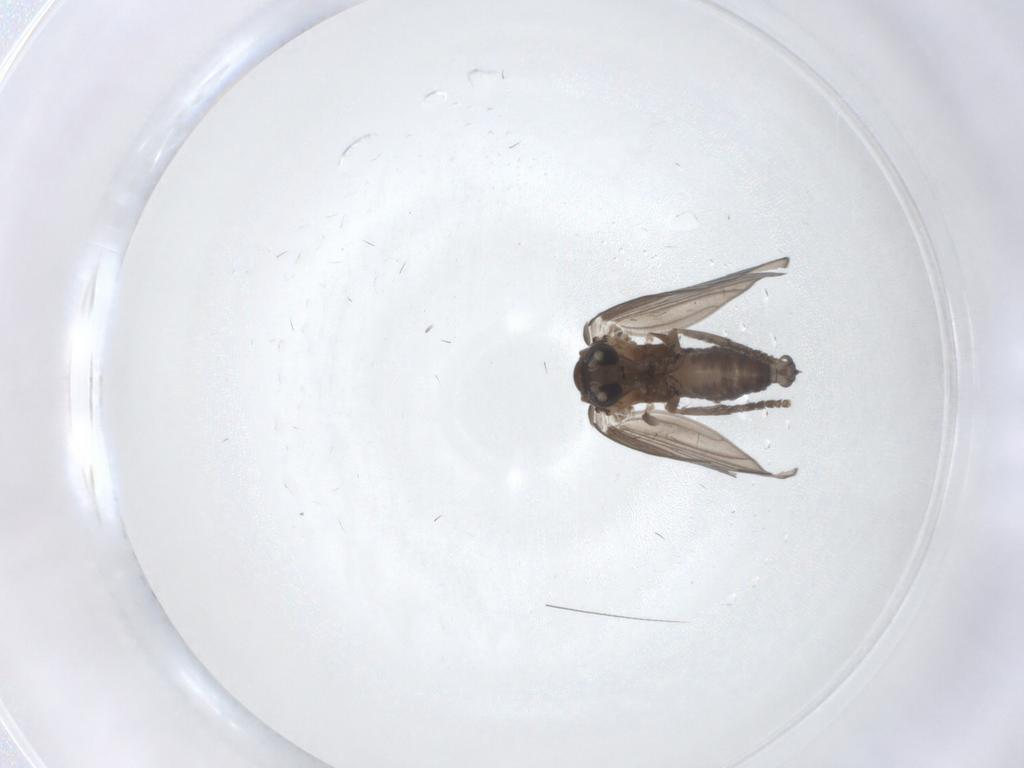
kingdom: Animalia
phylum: Arthropoda
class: Insecta
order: Diptera
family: Psychodidae
